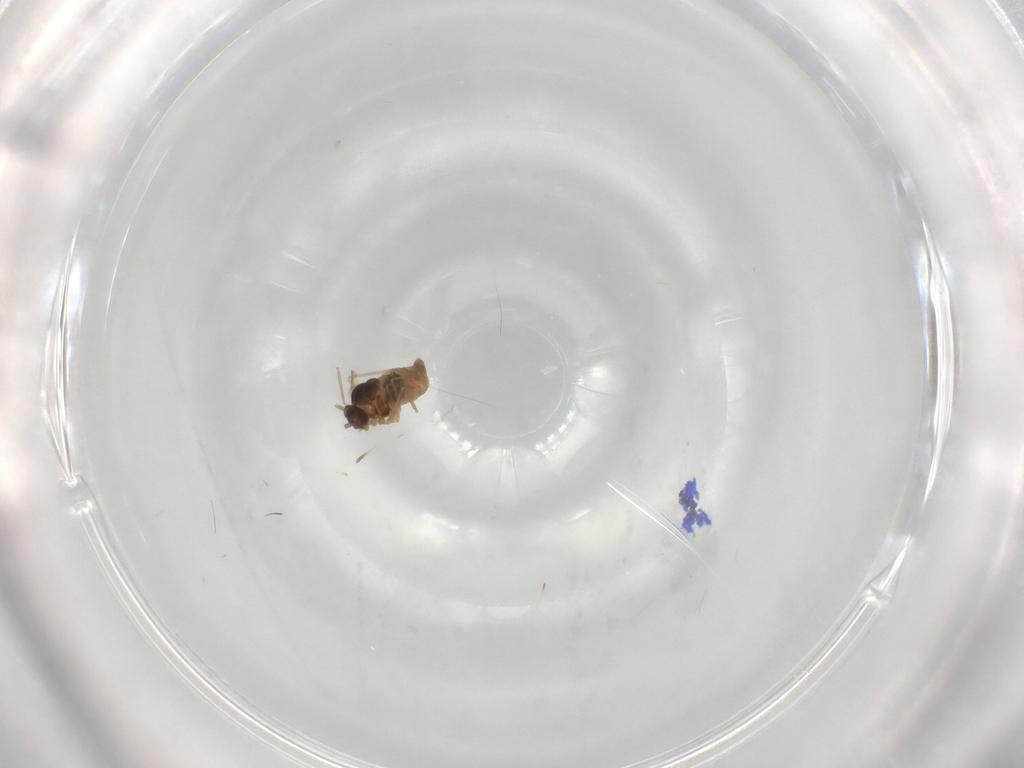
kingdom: Animalia
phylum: Arthropoda
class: Insecta
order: Diptera
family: Cecidomyiidae
